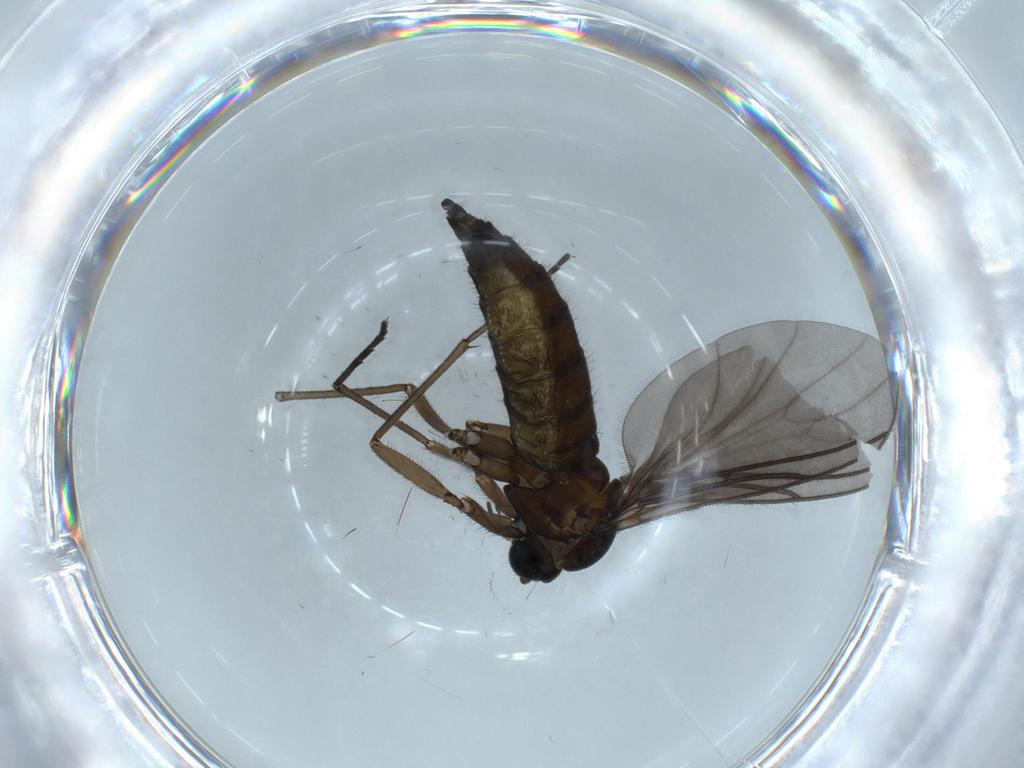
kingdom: Animalia
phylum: Arthropoda
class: Insecta
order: Diptera
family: Sciaridae
